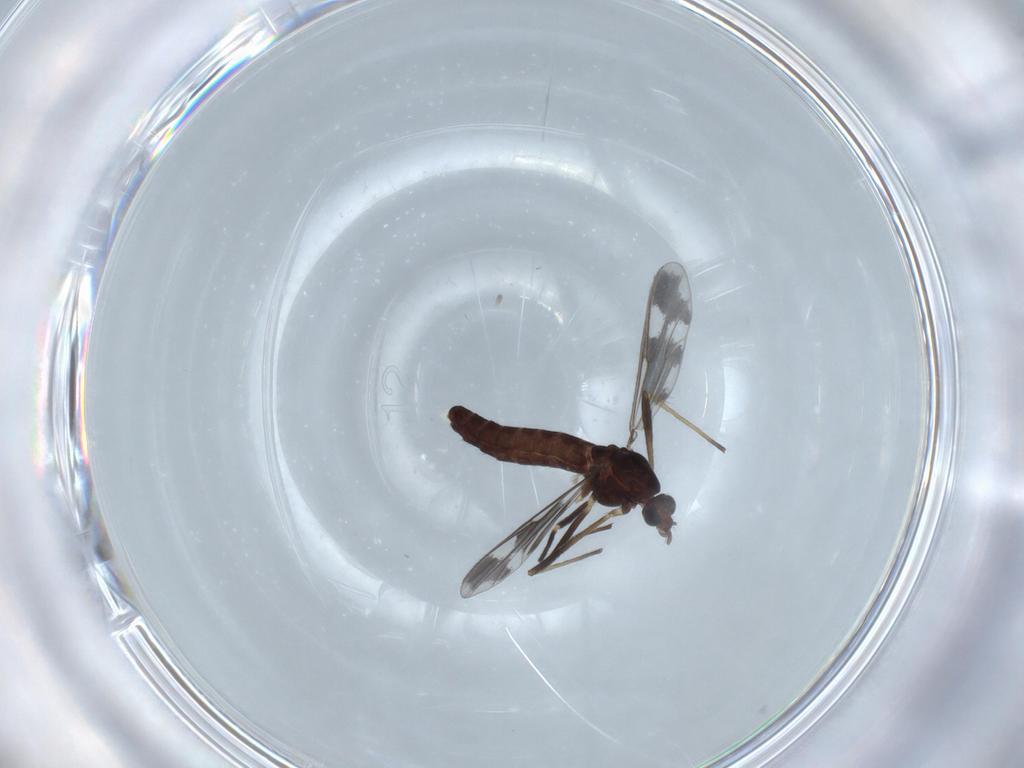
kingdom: Animalia
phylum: Arthropoda
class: Insecta
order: Diptera
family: Chironomidae
